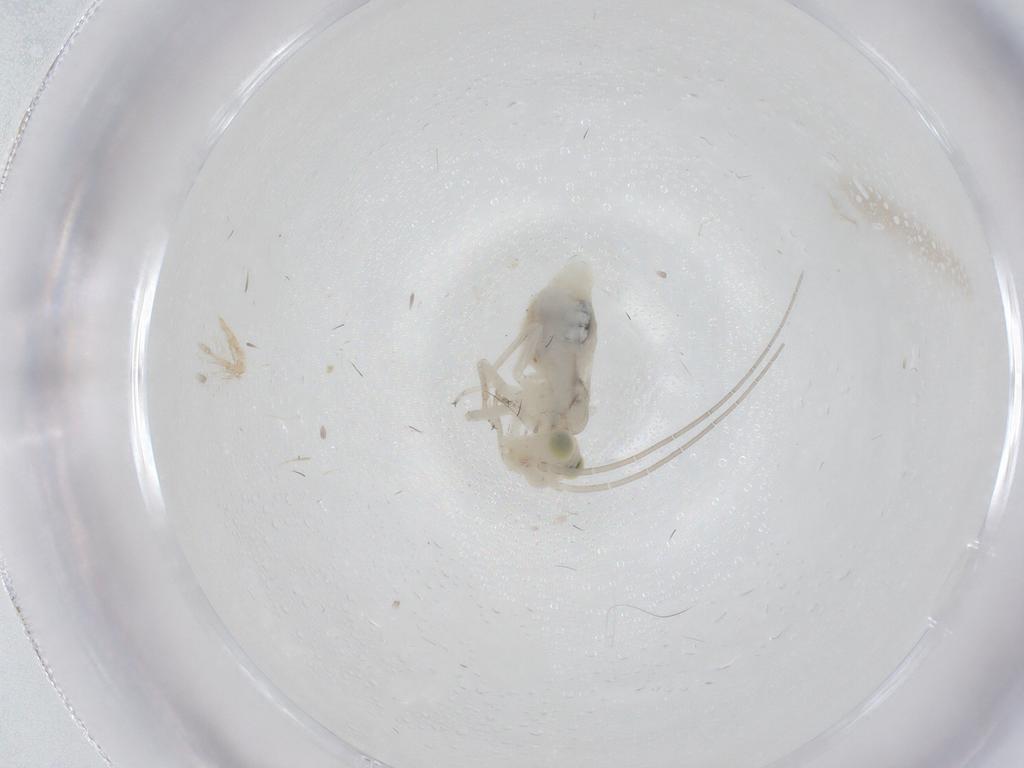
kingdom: Animalia
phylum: Arthropoda
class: Insecta
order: Psocodea
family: Caeciliusidae
